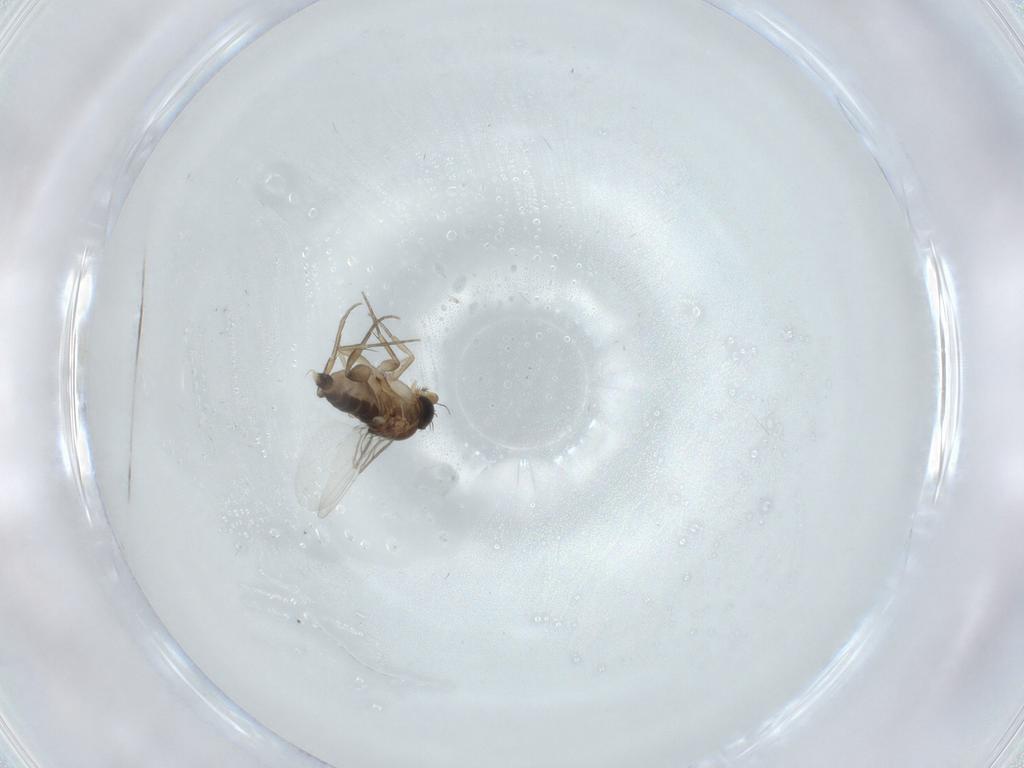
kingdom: Animalia
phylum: Arthropoda
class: Insecta
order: Diptera
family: Phoridae
